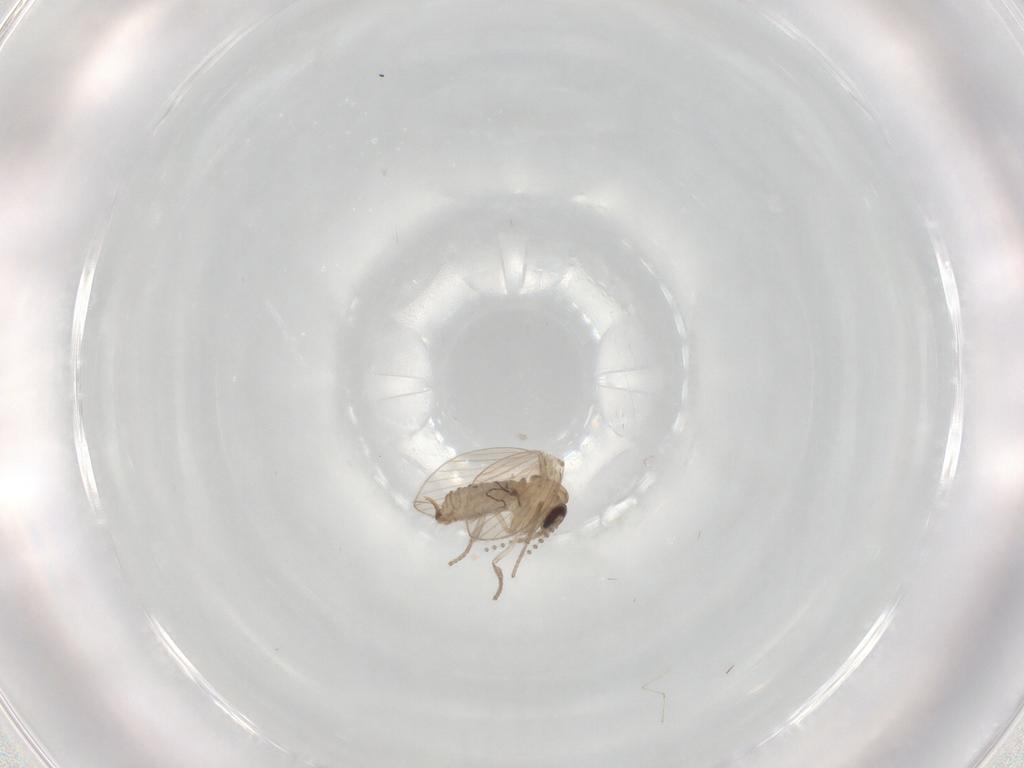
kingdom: Animalia
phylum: Arthropoda
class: Insecta
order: Diptera
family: Psychodidae
